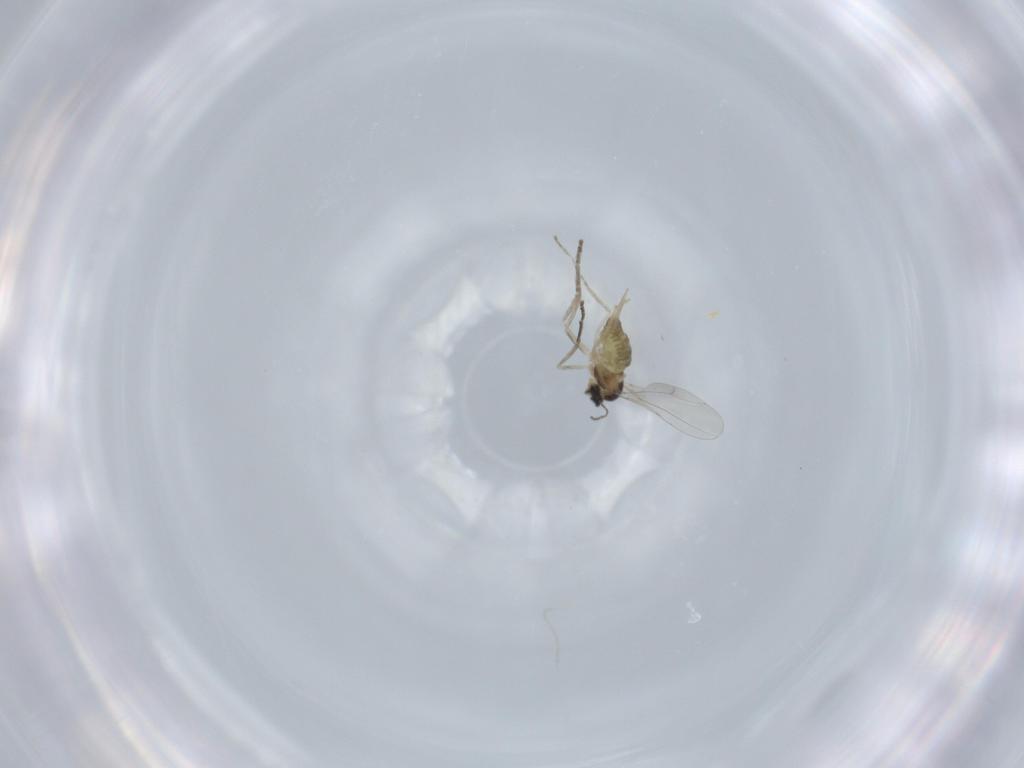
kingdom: Animalia
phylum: Arthropoda
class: Insecta
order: Diptera
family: Cecidomyiidae
